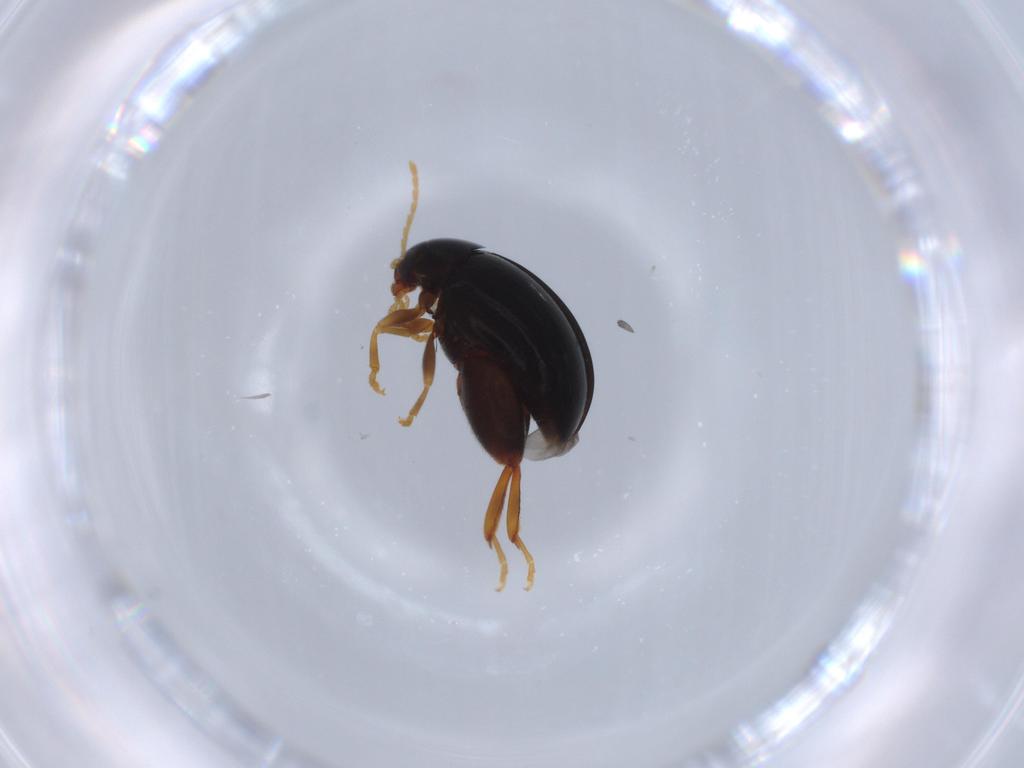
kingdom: Animalia
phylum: Arthropoda
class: Insecta
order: Coleoptera
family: Chrysomelidae
